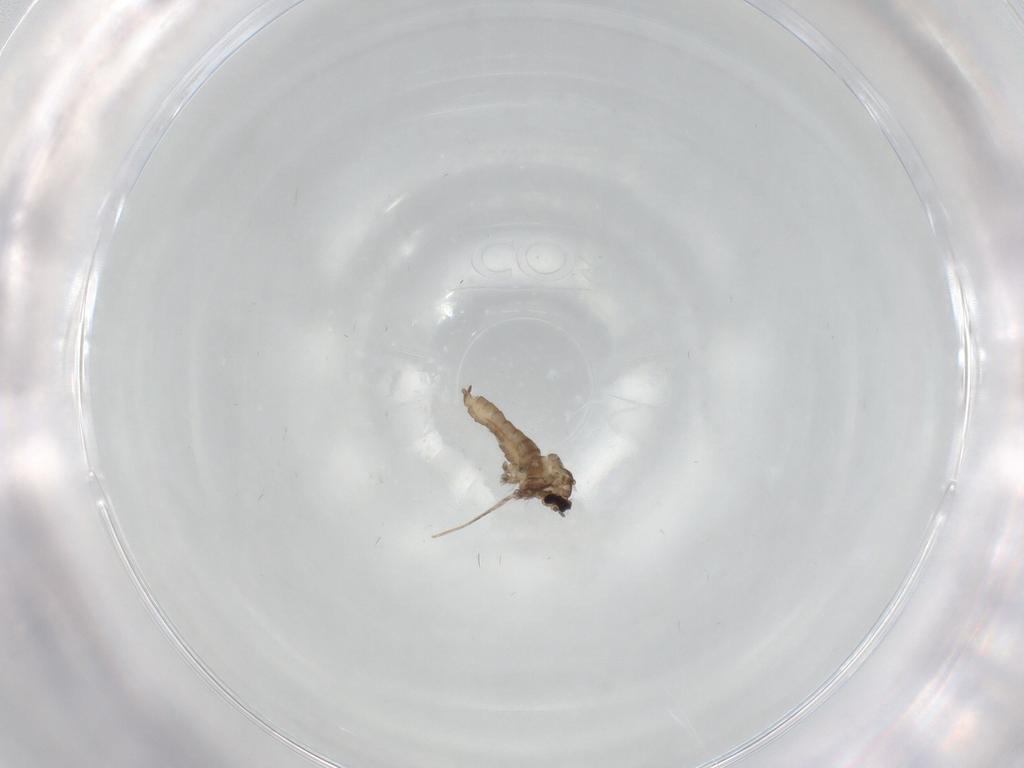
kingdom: Animalia
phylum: Arthropoda
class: Insecta
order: Diptera
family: Cecidomyiidae
